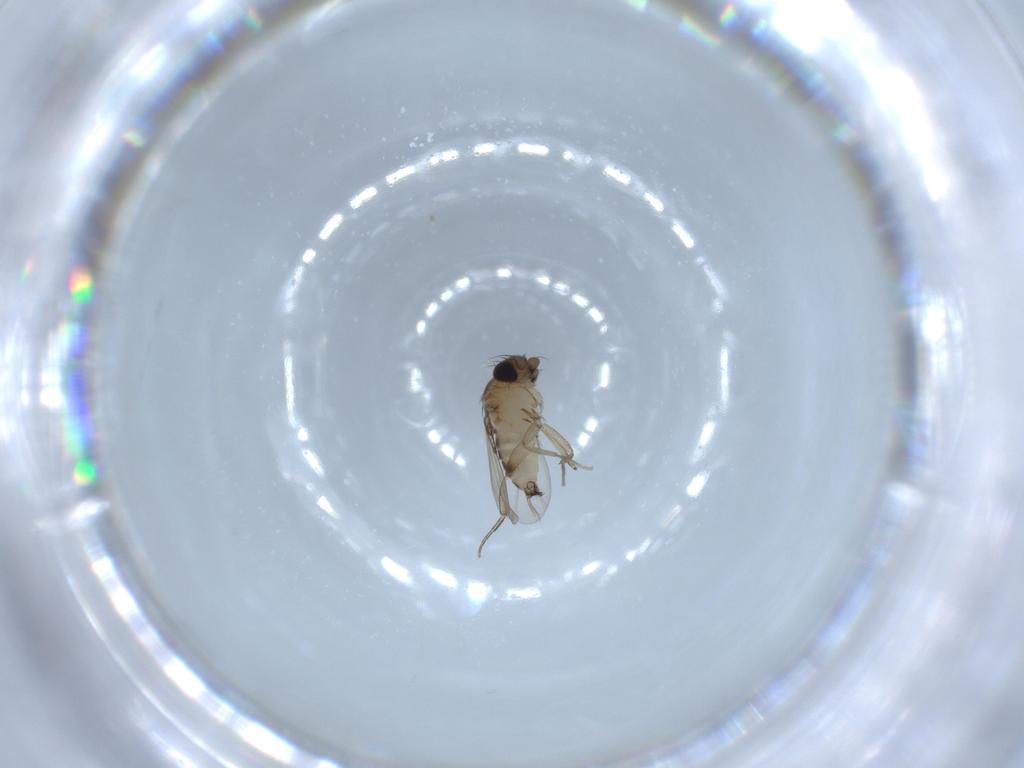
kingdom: Animalia
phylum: Arthropoda
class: Insecta
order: Diptera
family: Phoridae
